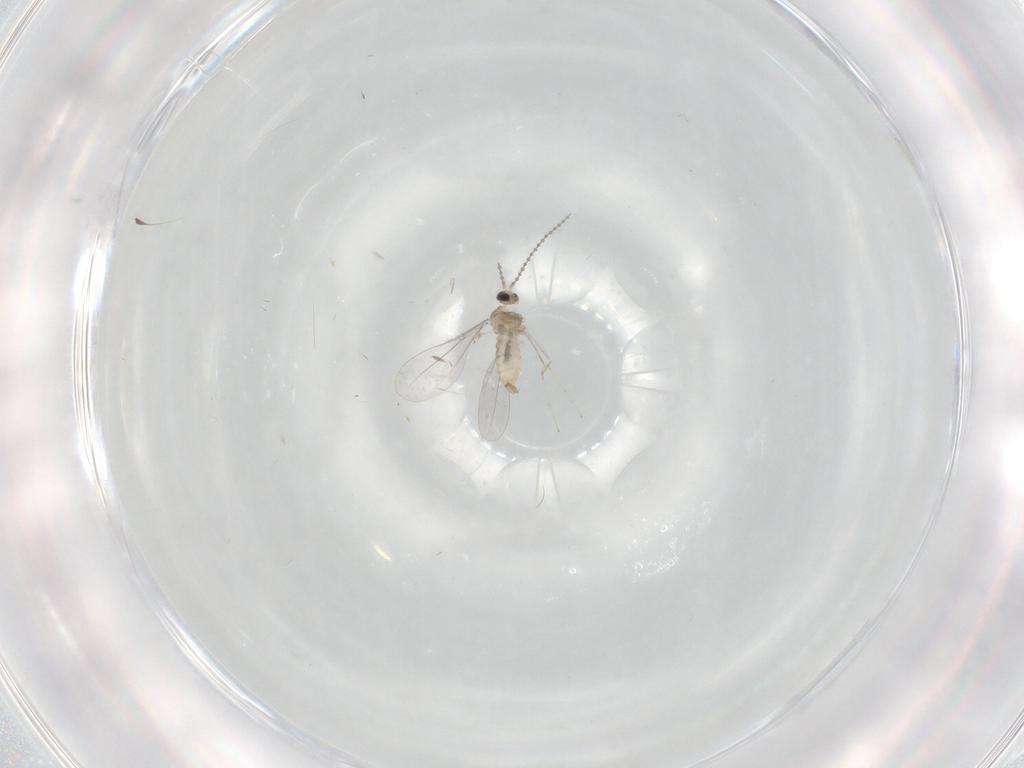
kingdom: Animalia
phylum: Arthropoda
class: Insecta
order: Diptera
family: Cecidomyiidae
